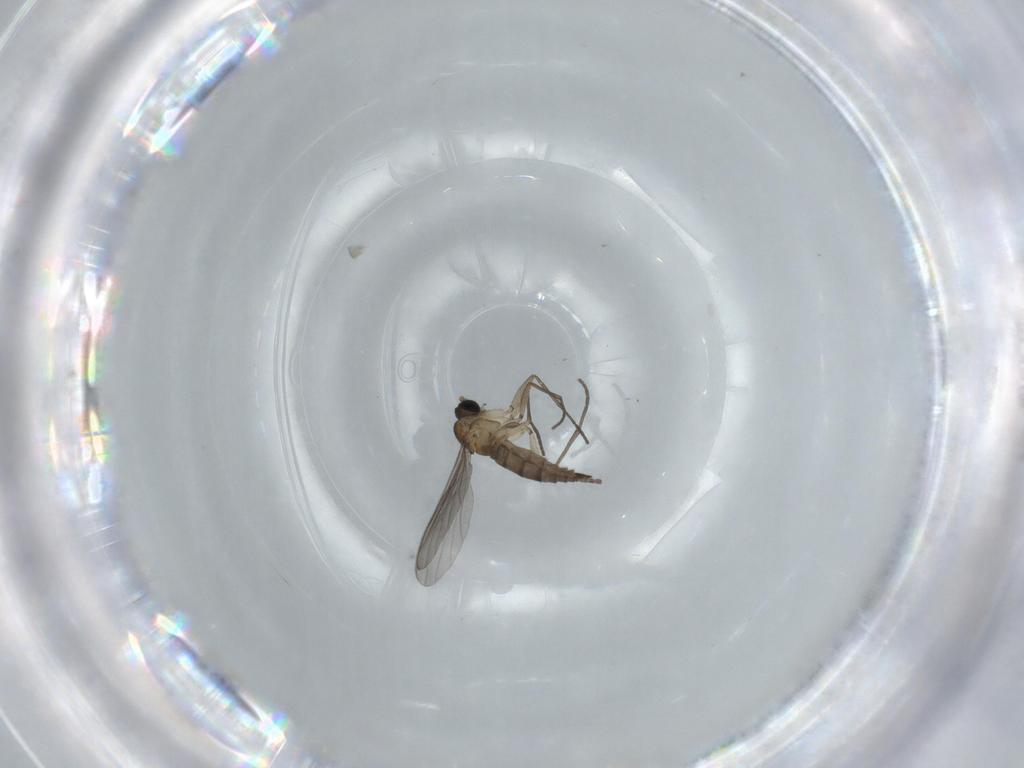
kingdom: Animalia
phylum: Arthropoda
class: Insecta
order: Diptera
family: Sciaridae
